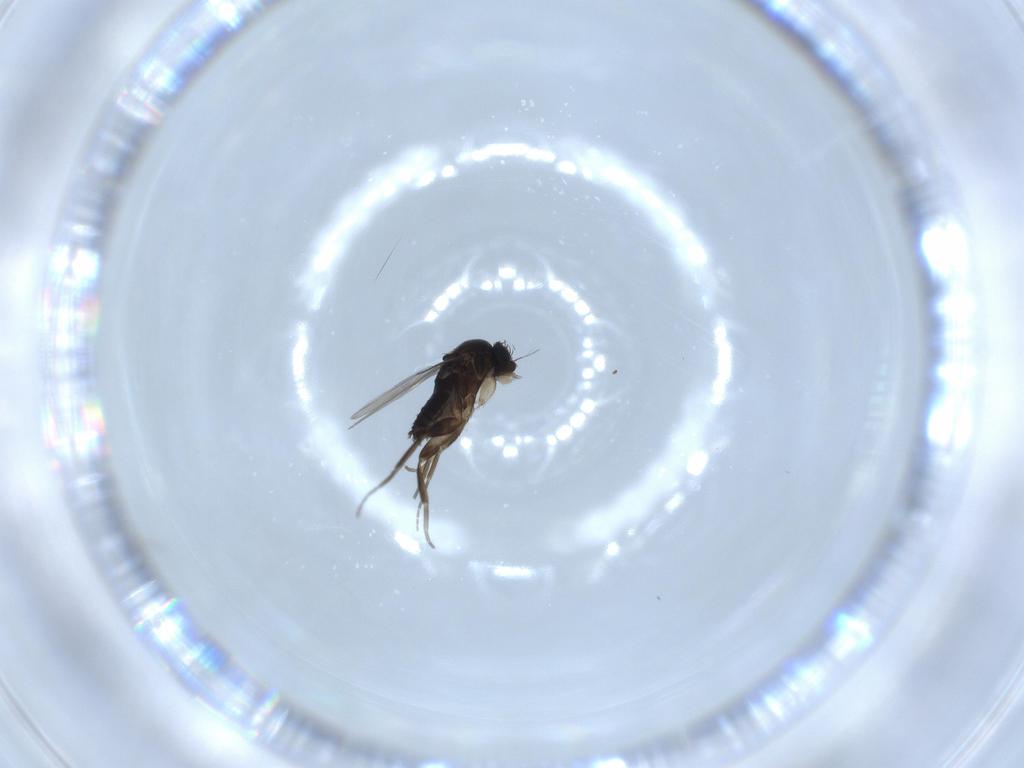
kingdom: Animalia
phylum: Arthropoda
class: Insecta
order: Diptera
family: Phoridae
